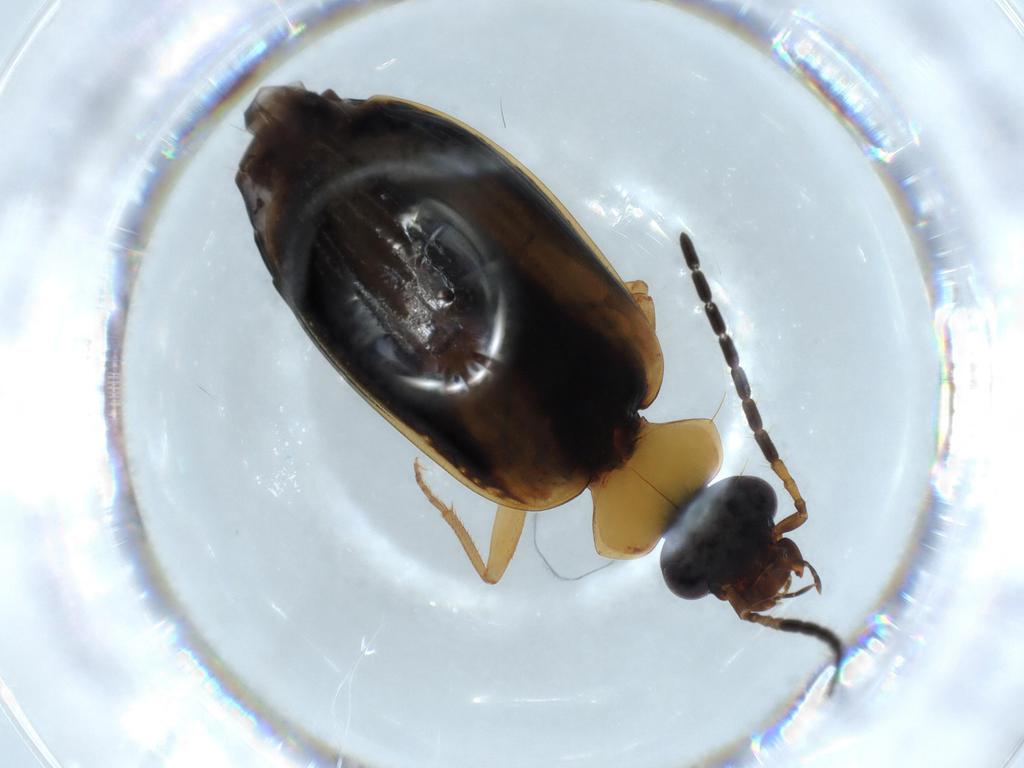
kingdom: Animalia
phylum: Arthropoda
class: Insecta
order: Coleoptera
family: Carabidae
